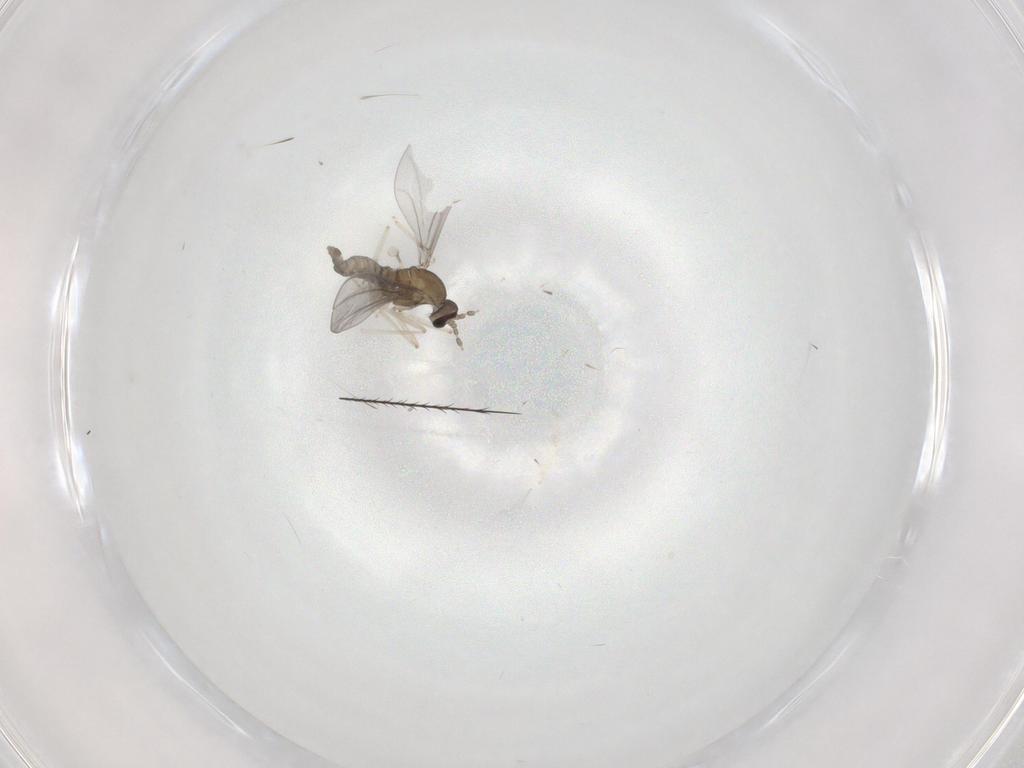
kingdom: Animalia
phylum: Arthropoda
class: Insecta
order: Diptera
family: Cecidomyiidae
